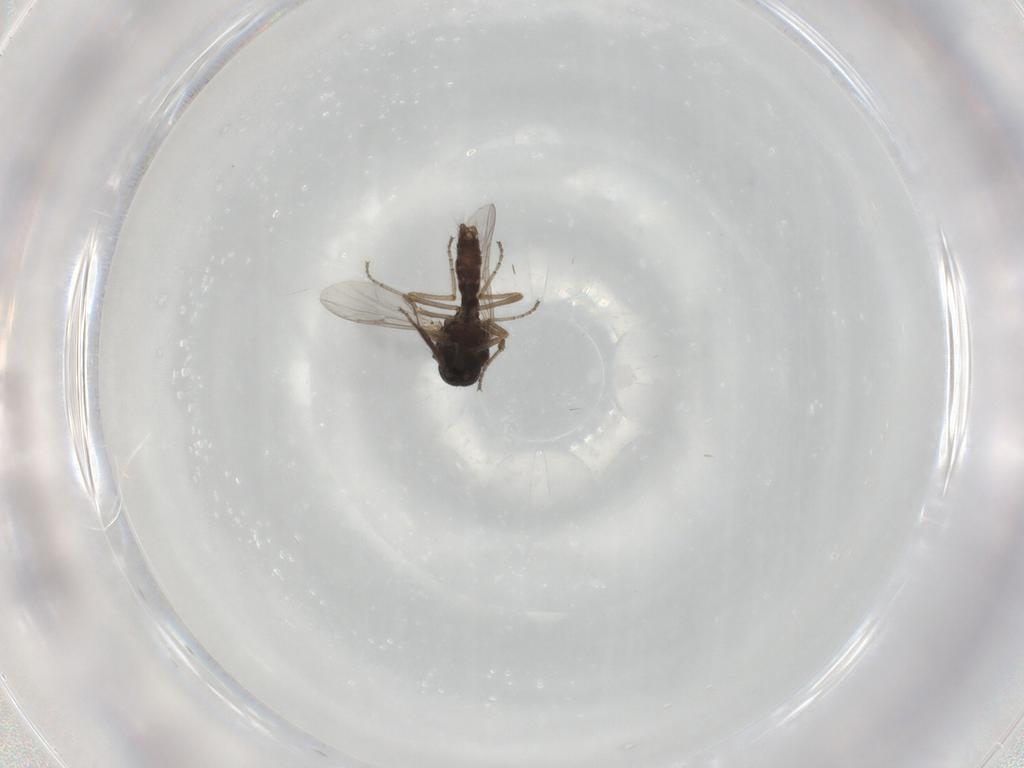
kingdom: Animalia
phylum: Arthropoda
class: Insecta
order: Diptera
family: Ceratopogonidae
